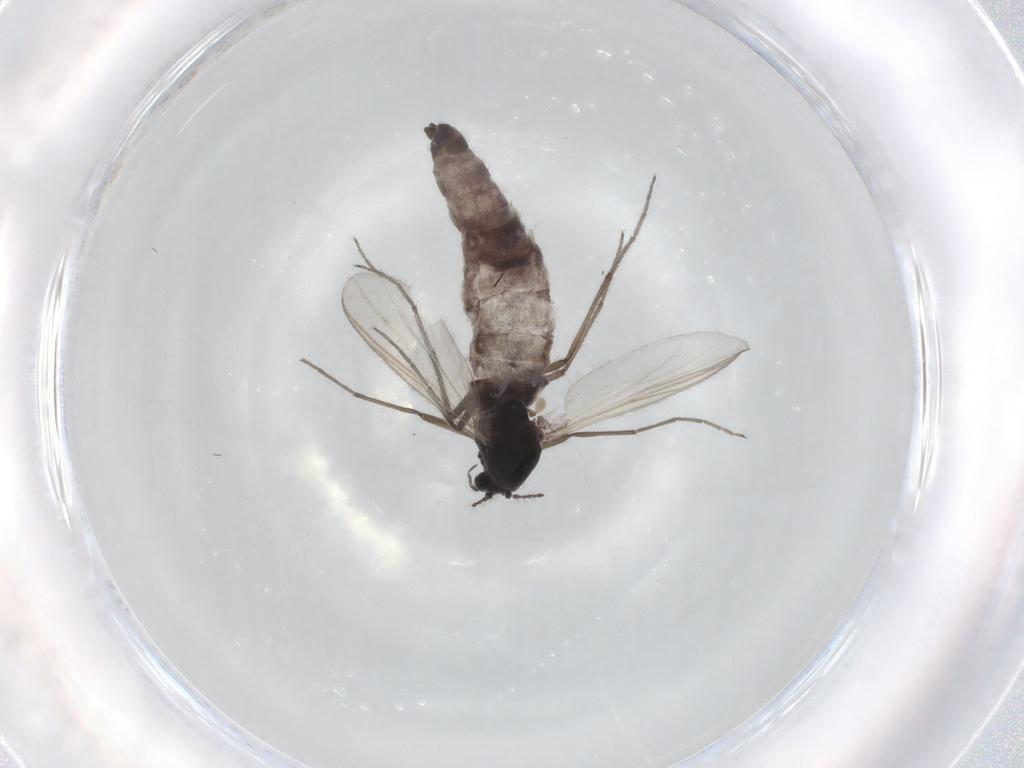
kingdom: Animalia
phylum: Arthropoda
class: Insecta
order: Diptera
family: Chironomidae
